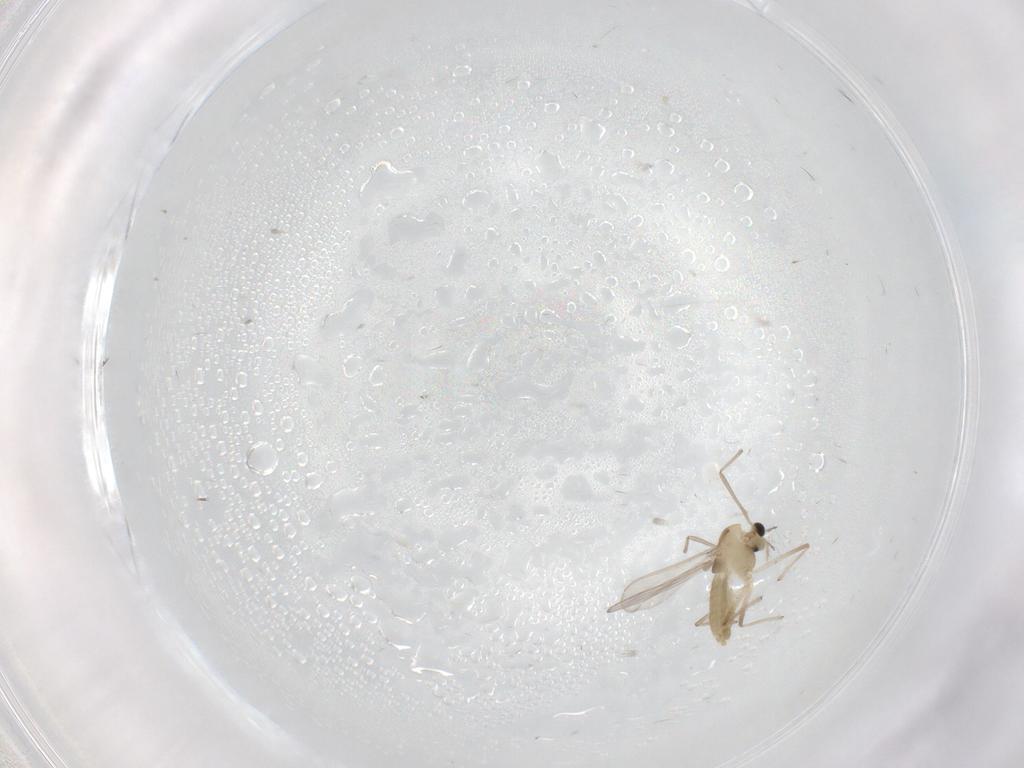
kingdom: Animalia
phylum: Arthropoda
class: Insecta
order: Diptera
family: Chironomidae
